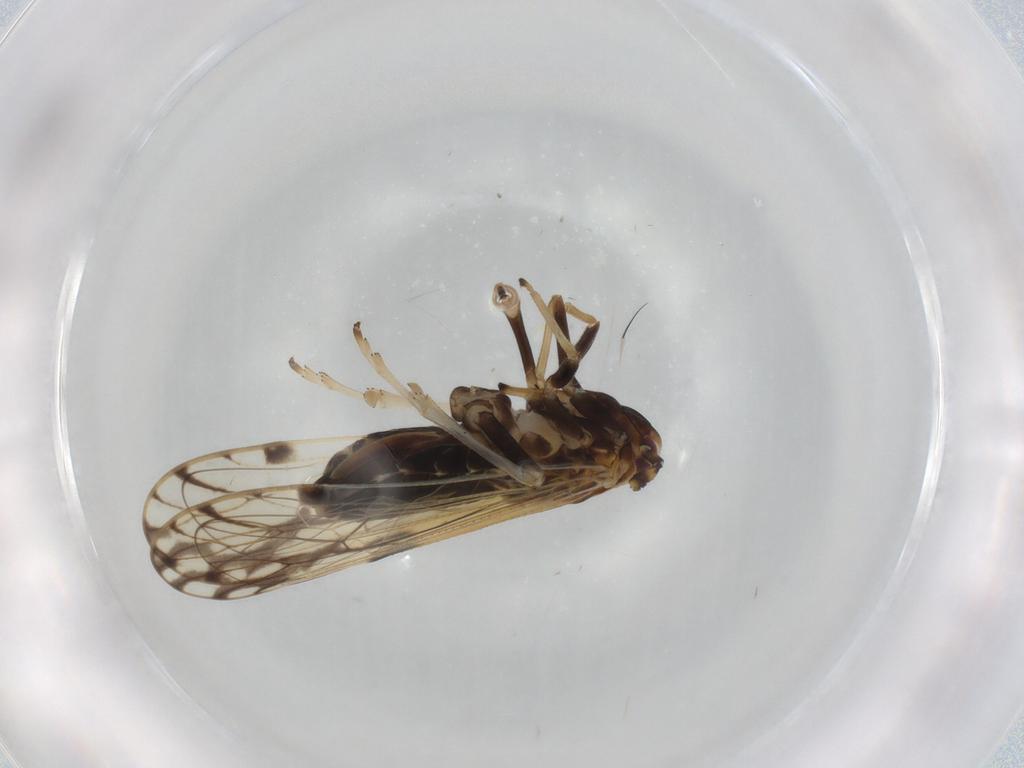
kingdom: Animalia
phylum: Arthropoda
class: Insecta
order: Hemiptera
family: Delphacidae
